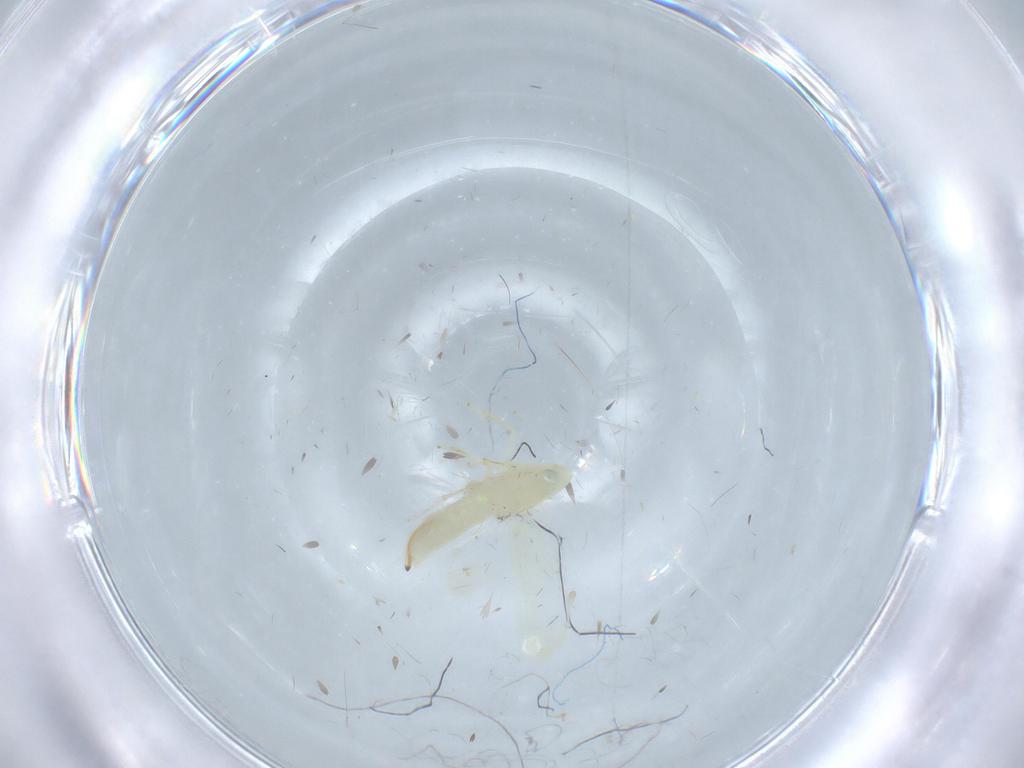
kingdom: Animalia
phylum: Arthropoda
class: Insecta
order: Hemiptera
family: Cicadellidae
